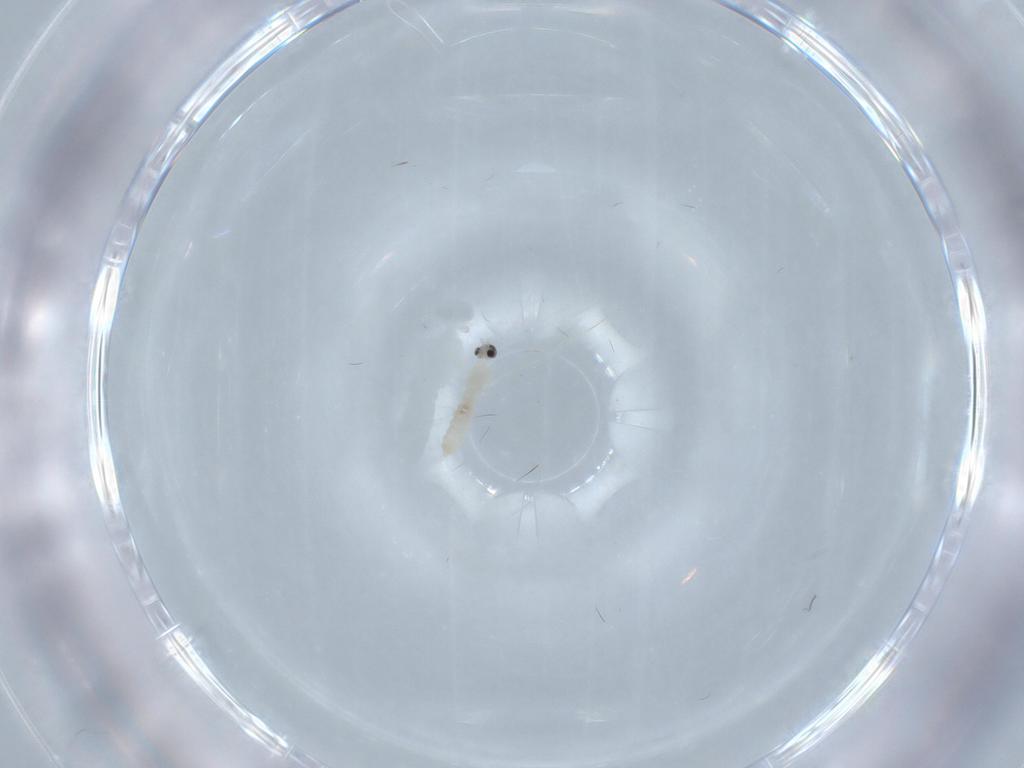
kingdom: Animalia
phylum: Arthropoda
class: Insecta
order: Diptera
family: Cecidomyiidae
